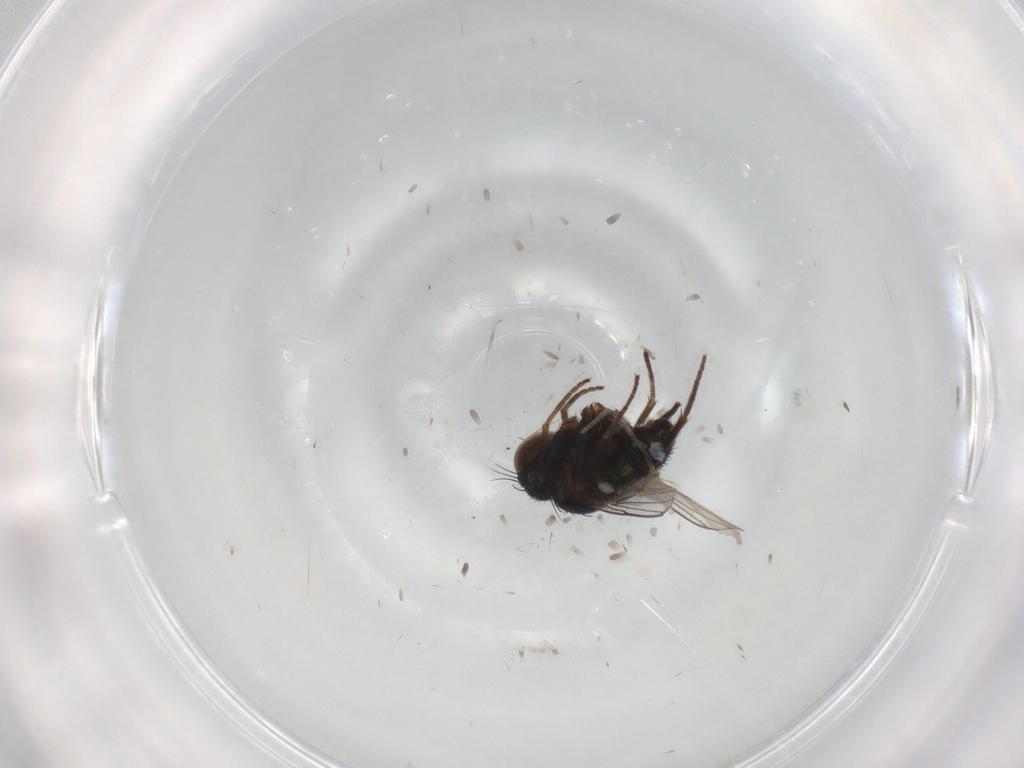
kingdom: Animalia
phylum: Arthropoda
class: Insecta
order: Diptera
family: Dolichopodidae
